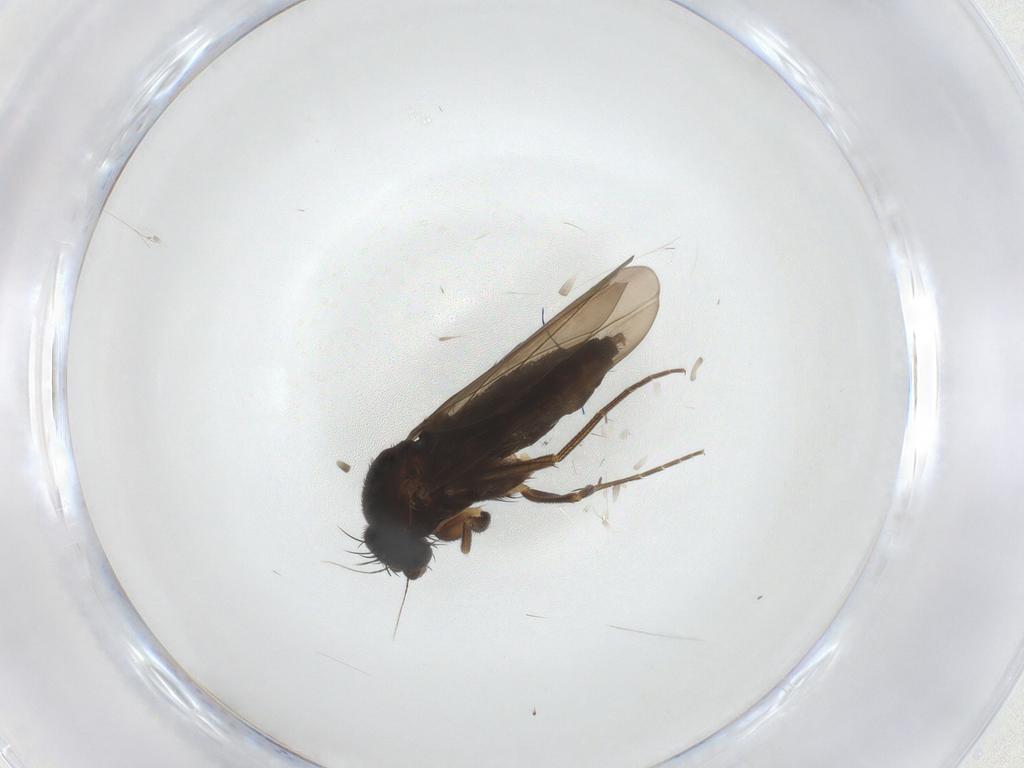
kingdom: Animalia
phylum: Arthropoda
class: Insecta
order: Diptera
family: Phoridae
